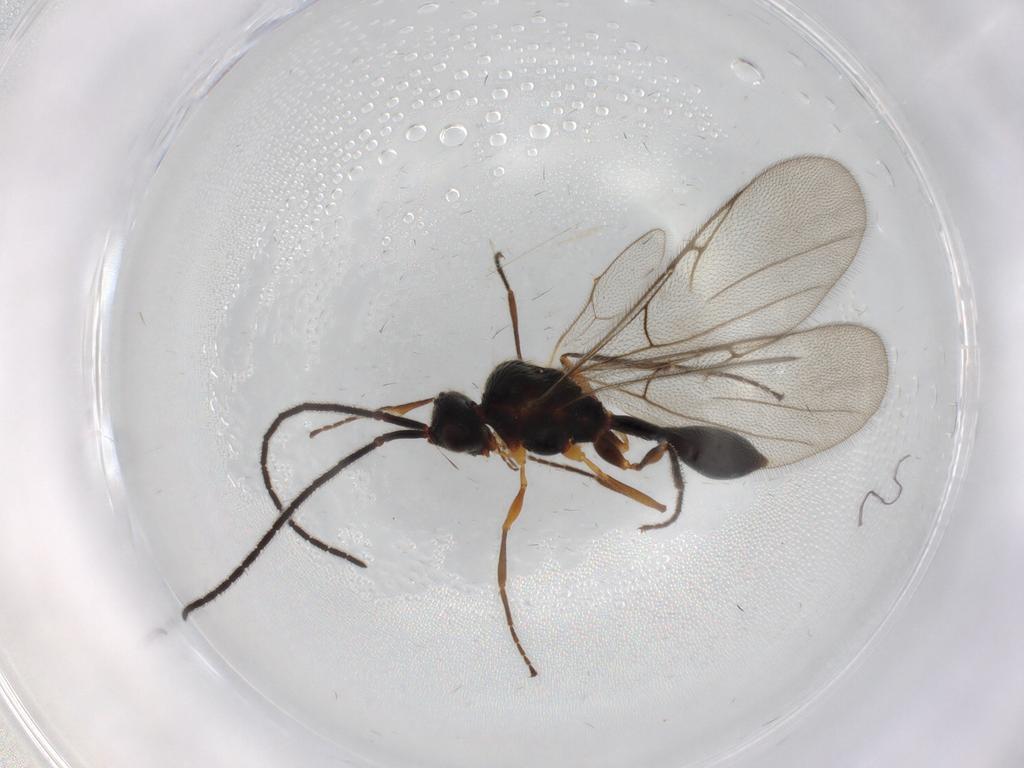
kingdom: Animalia
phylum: Arthropoda
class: Insecta
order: Hymenoptera
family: Diapriidae
